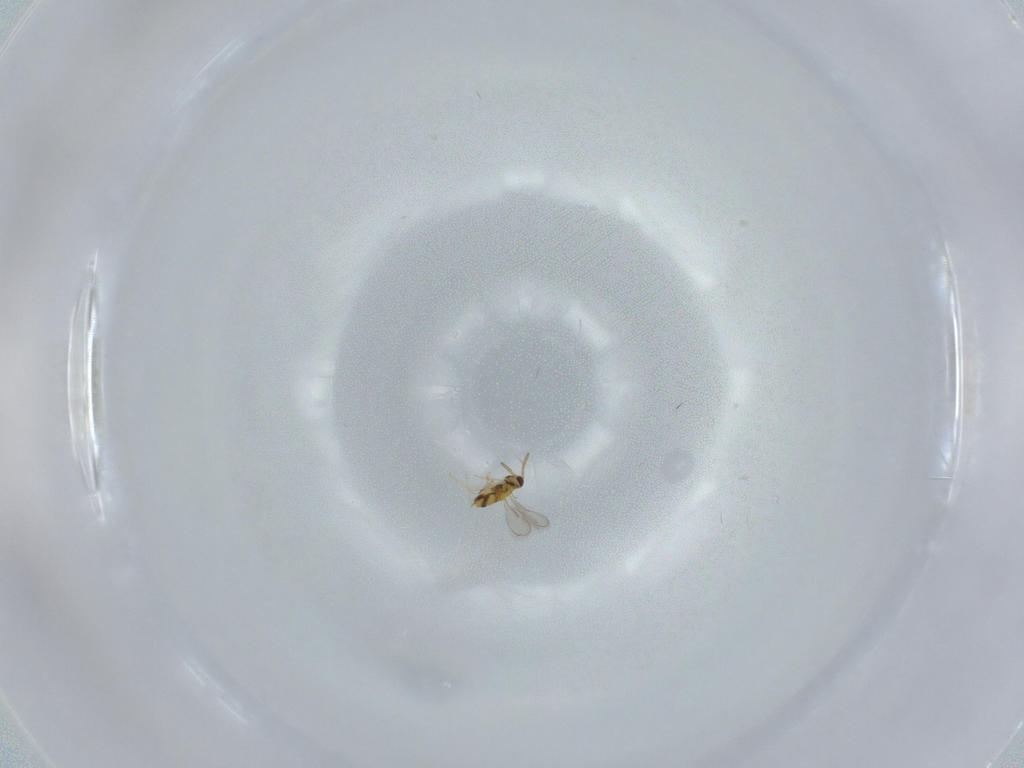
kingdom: Animalia
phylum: Arthropoda
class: Insecta
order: Hymenoptera
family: Aphelinidae
